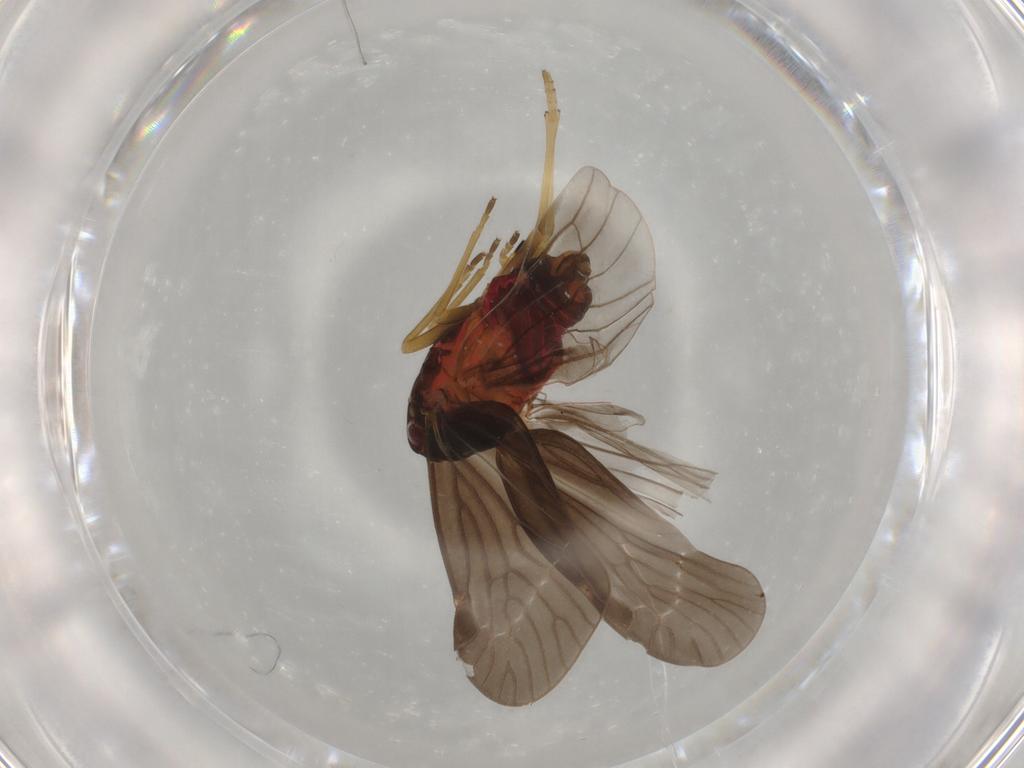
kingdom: Animalia
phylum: Arthropoda
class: Insecta
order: Hemiptera
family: Derbidae
